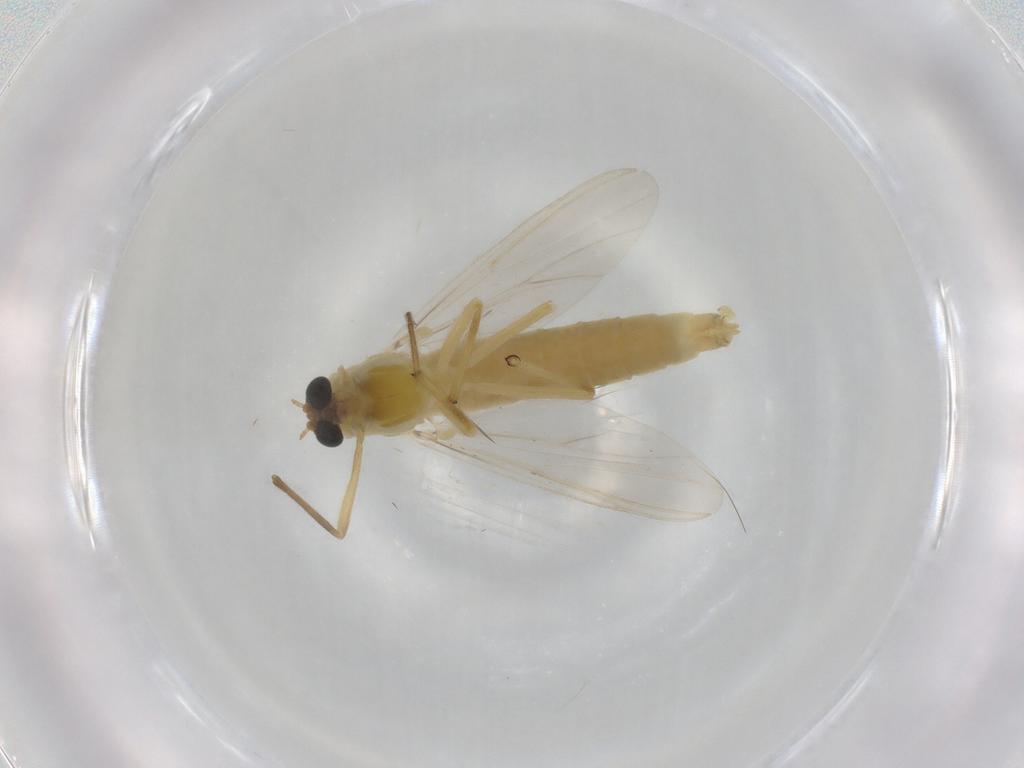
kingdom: Animalia
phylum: Arthropoda
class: Insecta
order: Diptera
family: Chironomidae
